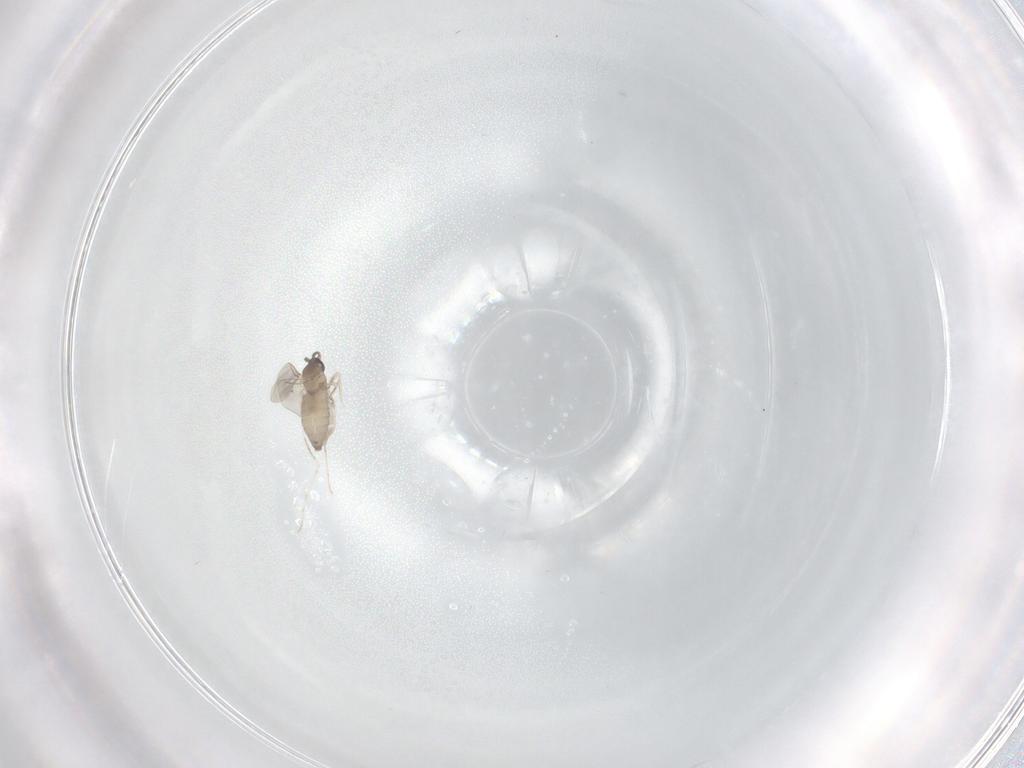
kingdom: Animalia
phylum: Arthropoda
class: Insecta
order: Diptera
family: Cecidomyiidae
